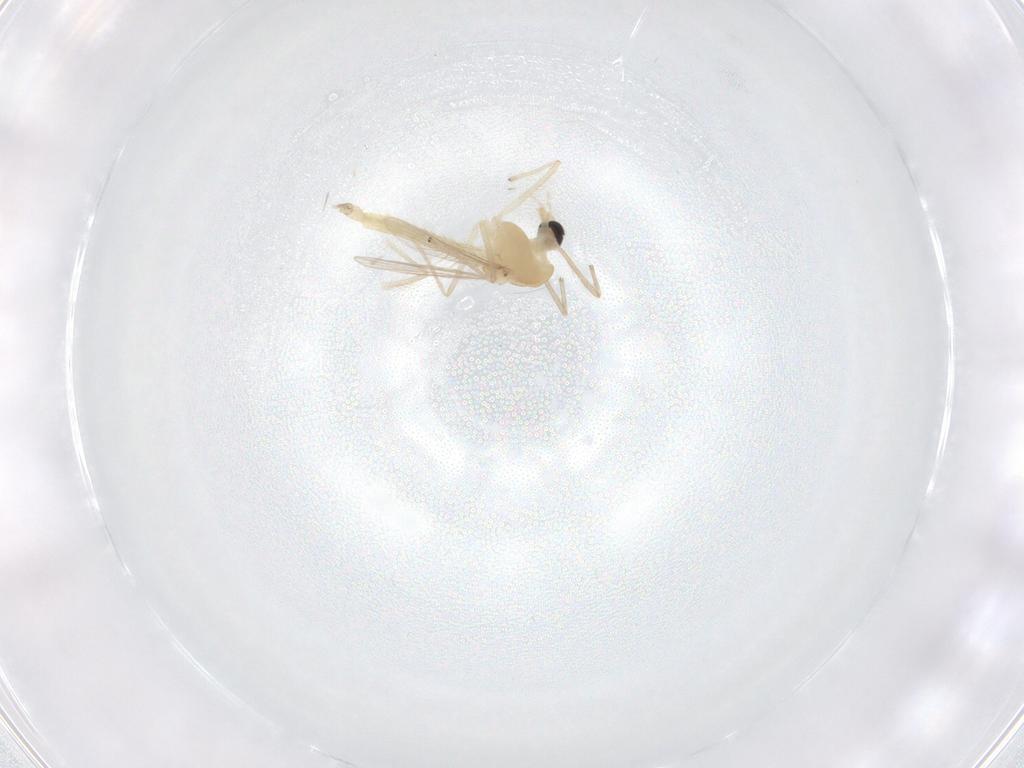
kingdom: Animalia
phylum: Arthropoda
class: Insecta
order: Diptera
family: Chironomidae
